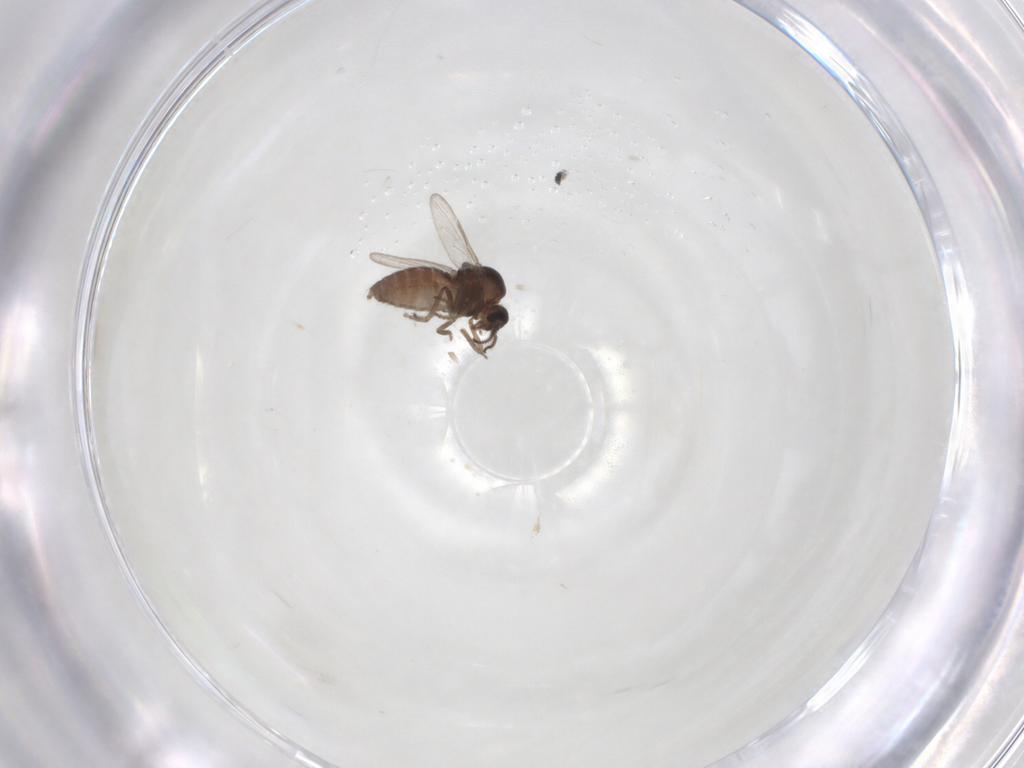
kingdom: Animalia
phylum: Arthropoda
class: Insecta
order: Diptera
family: Ceratopogonidae
